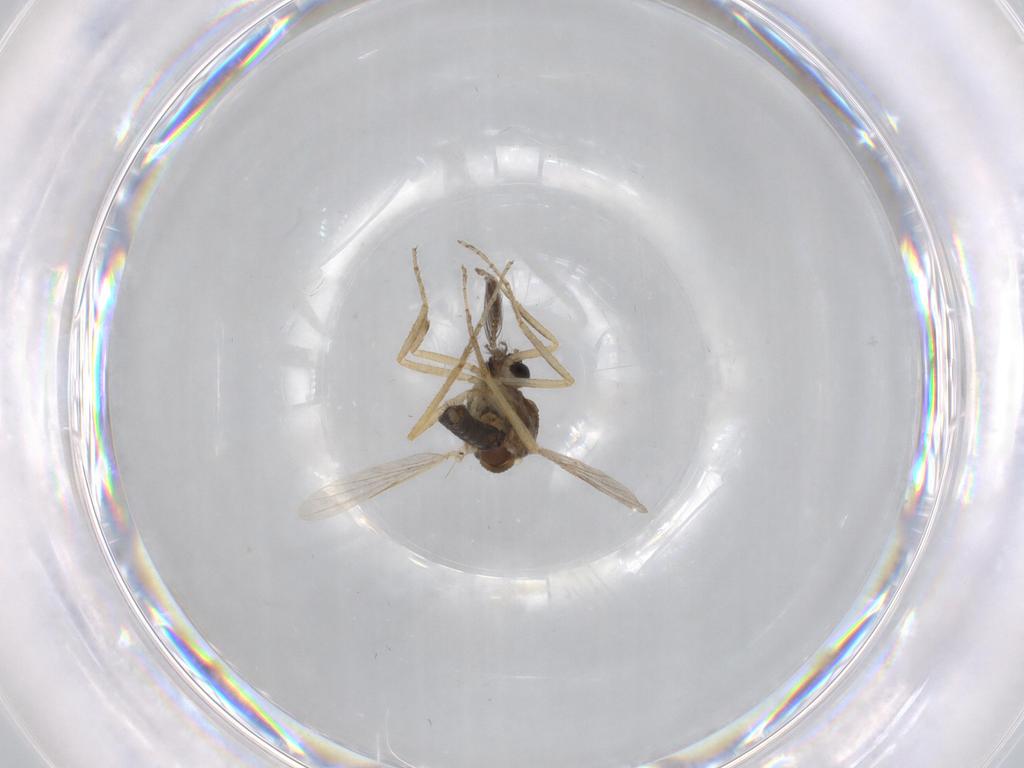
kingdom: Animalia
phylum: Arthropoda
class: Insecta
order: Diptera
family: Ceratopogonidae
